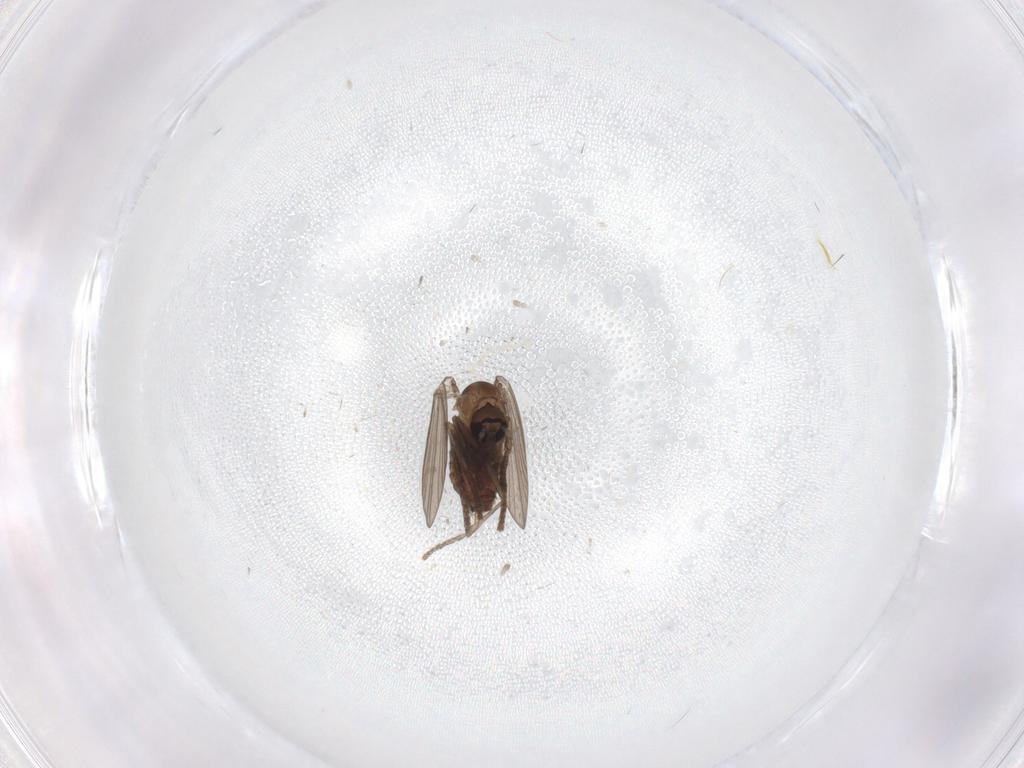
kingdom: Animalia
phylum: Arthropoda
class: Insecta
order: Diptera
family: Psychodidae
